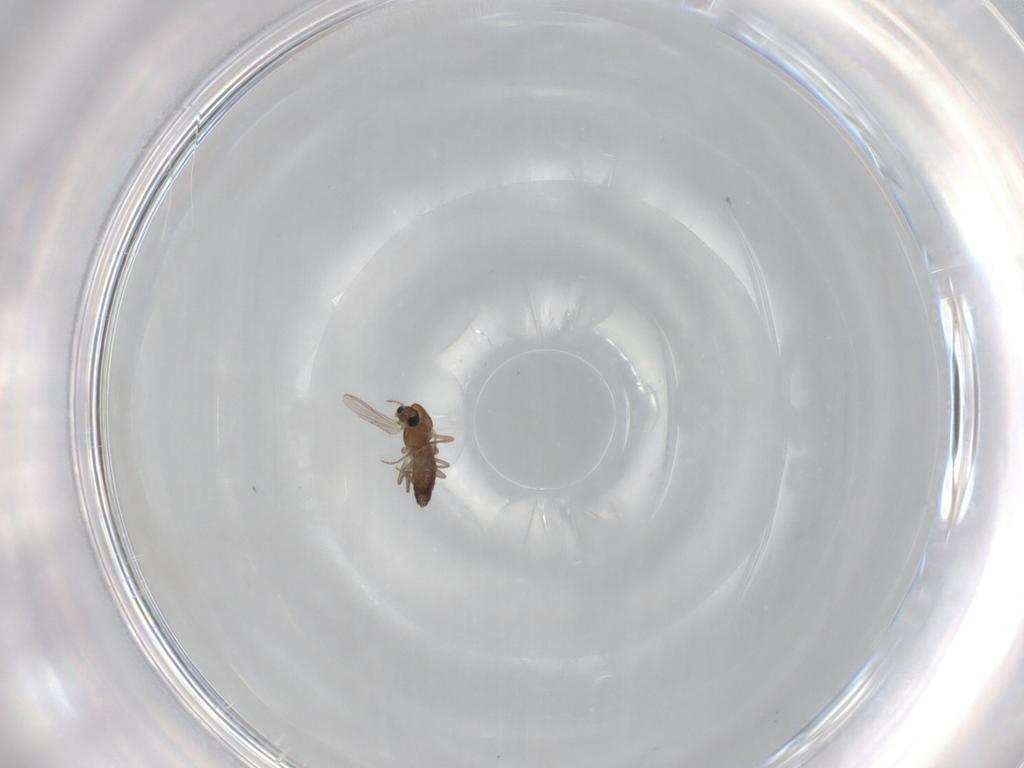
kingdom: Animalia
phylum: Arthropoda
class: Insecta
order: Diptera
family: Chironomidae
